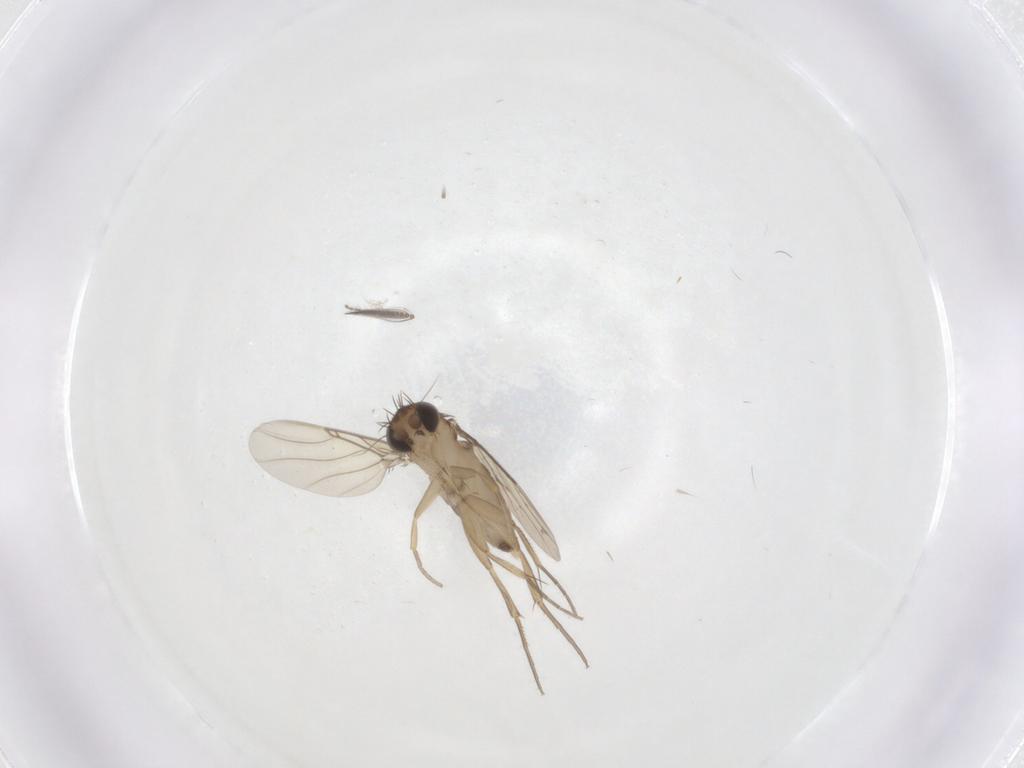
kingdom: Animalia
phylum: Arthropoda
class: Insecta
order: Diptera
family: Phoridae
